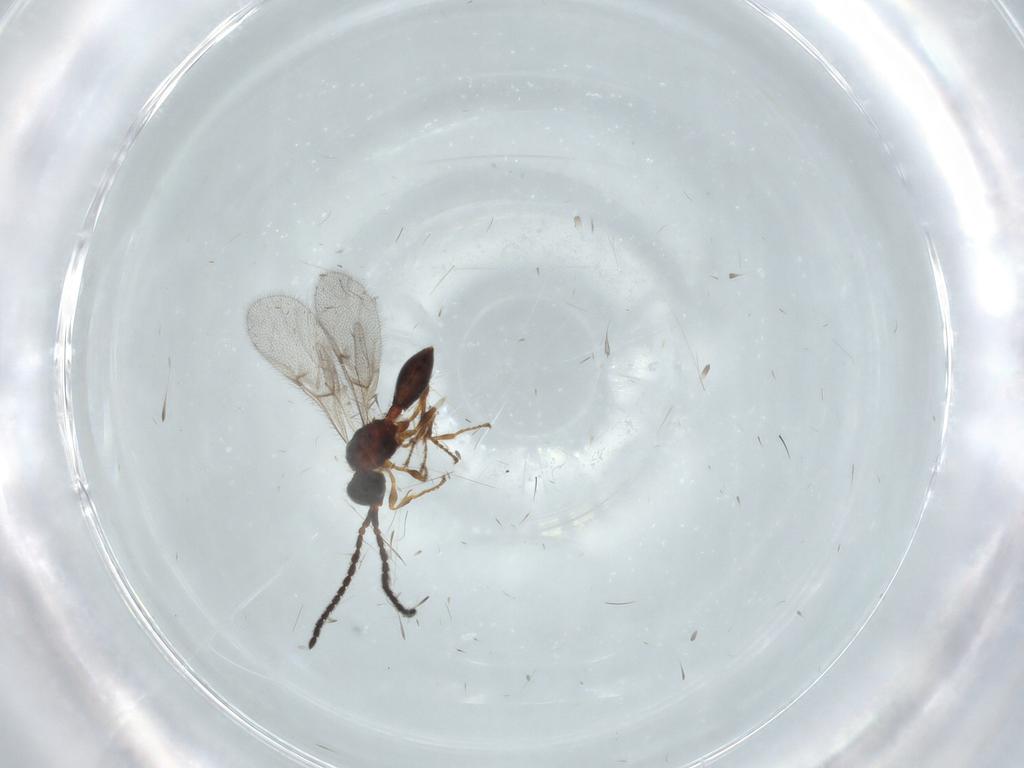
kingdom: Animalia
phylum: Arthropoda
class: Insecta
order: Hymenoptera
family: Diapriidae
